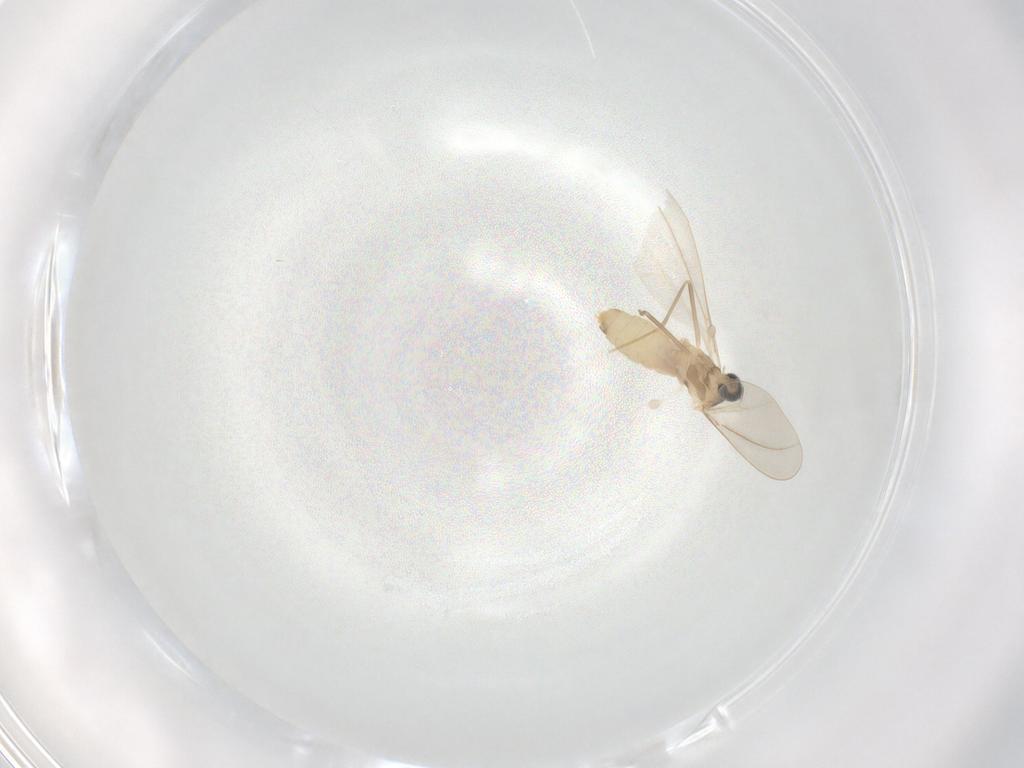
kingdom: Animalia
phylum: Arthropoda
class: Insecta
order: Diptera
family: Cecidomyiidae
